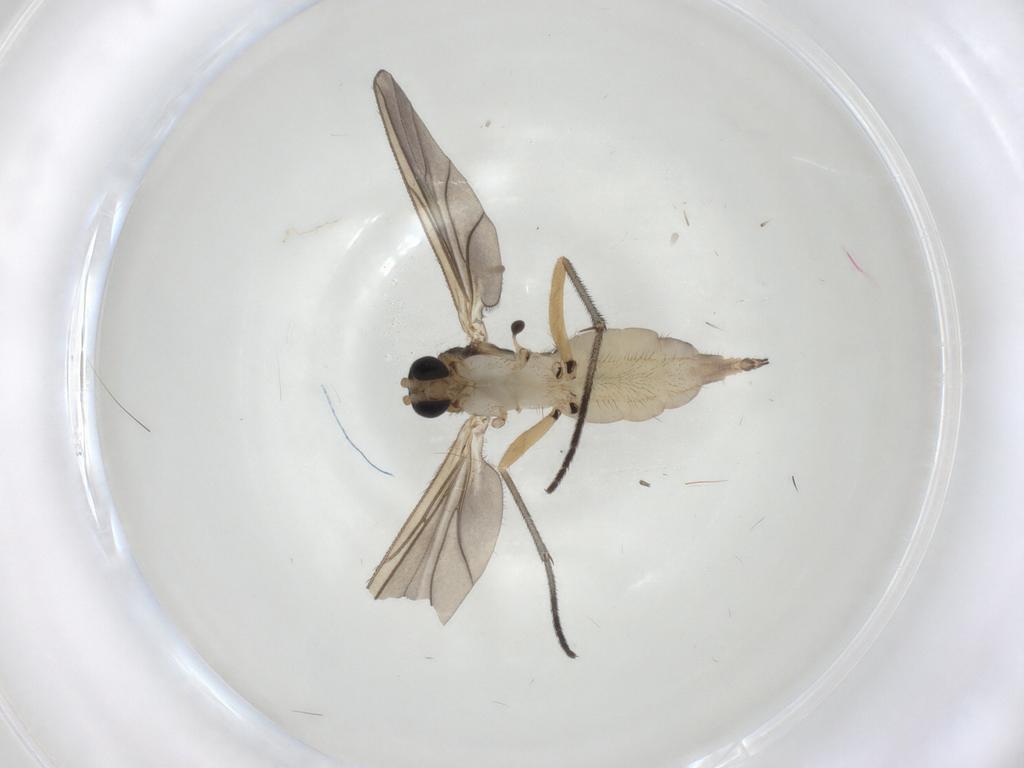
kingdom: Animalia
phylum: Arthropoda
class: Insecta
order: Diptera
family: Sciaridae
